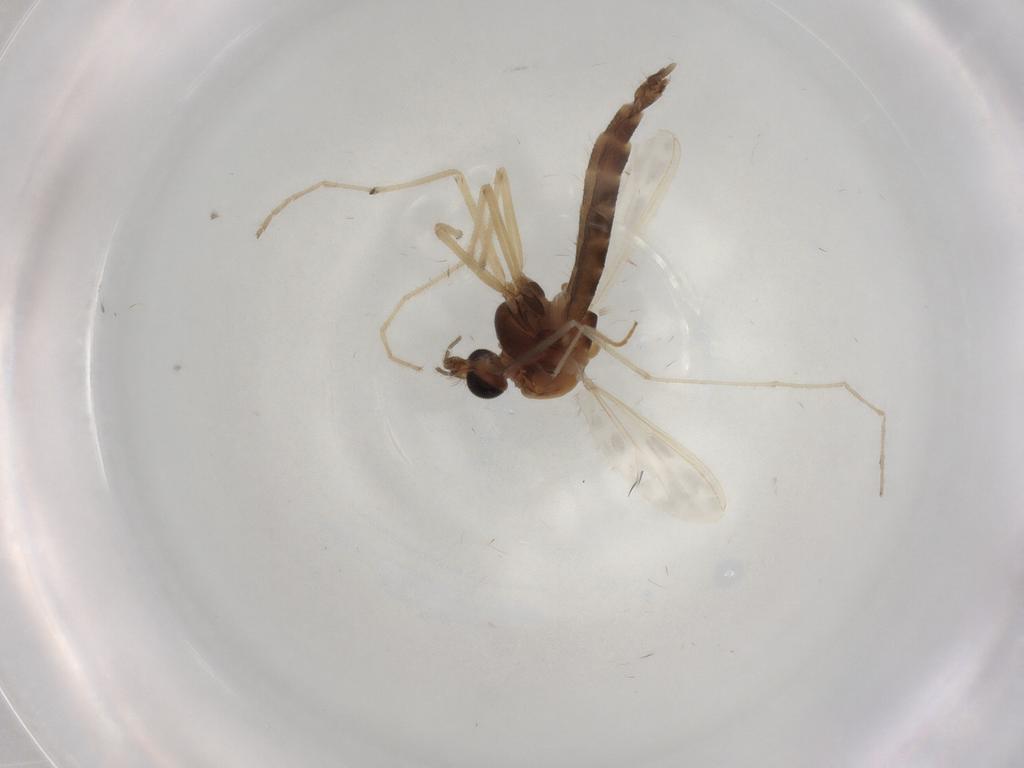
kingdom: Animalia
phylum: Arthropoda
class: Insecta
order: Diptera
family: Chironomidae
